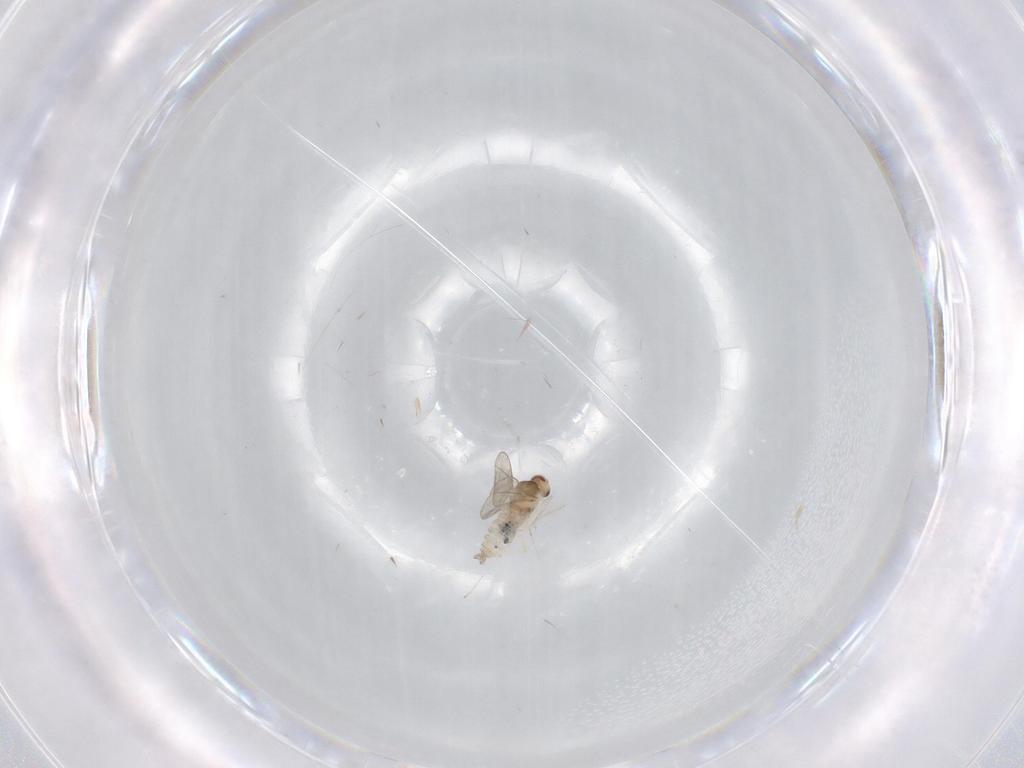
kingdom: Animalia
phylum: Arthropoda
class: Insecta
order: Diptera
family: Cecidomyiidae
